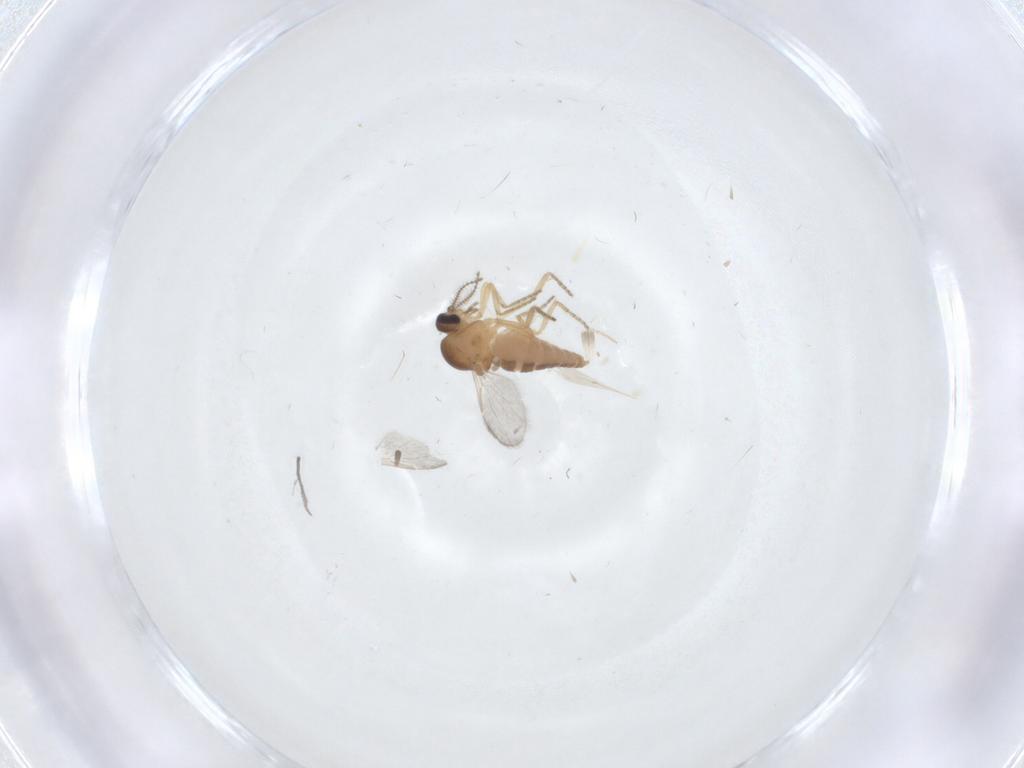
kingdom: Animalia
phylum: Arthropoda
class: Insecta
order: Diptera
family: Ceratopogonidae
